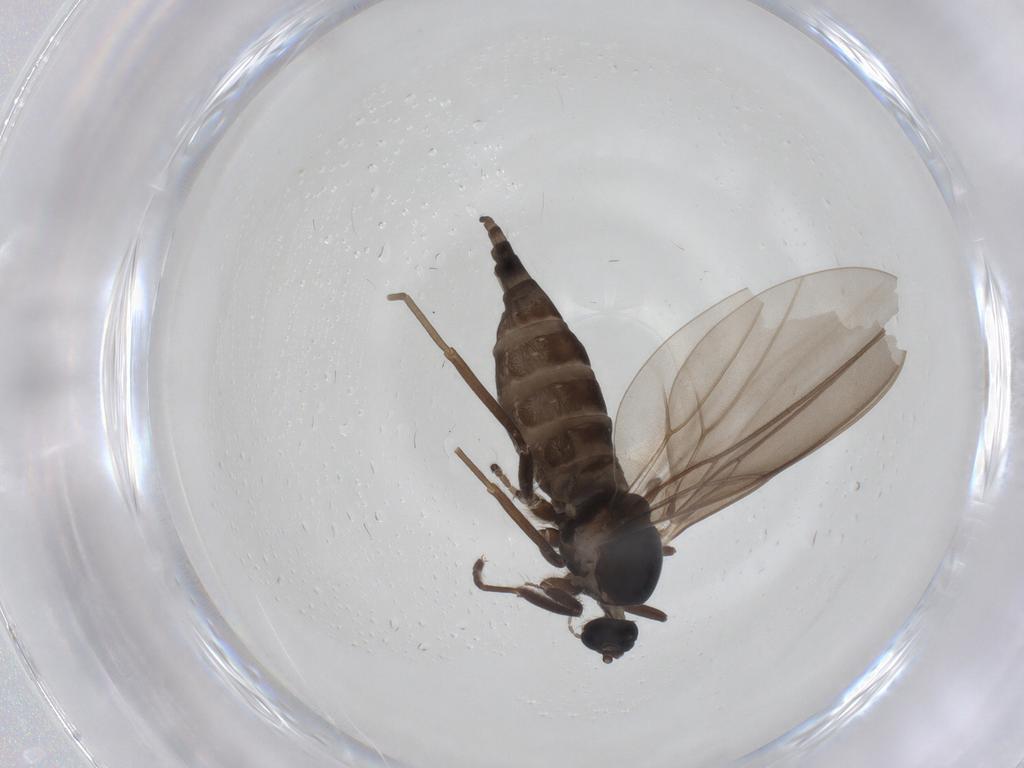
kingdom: Animalia
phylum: Arthropoda
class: Insecta
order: Diptera
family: Cecidomyiidae
